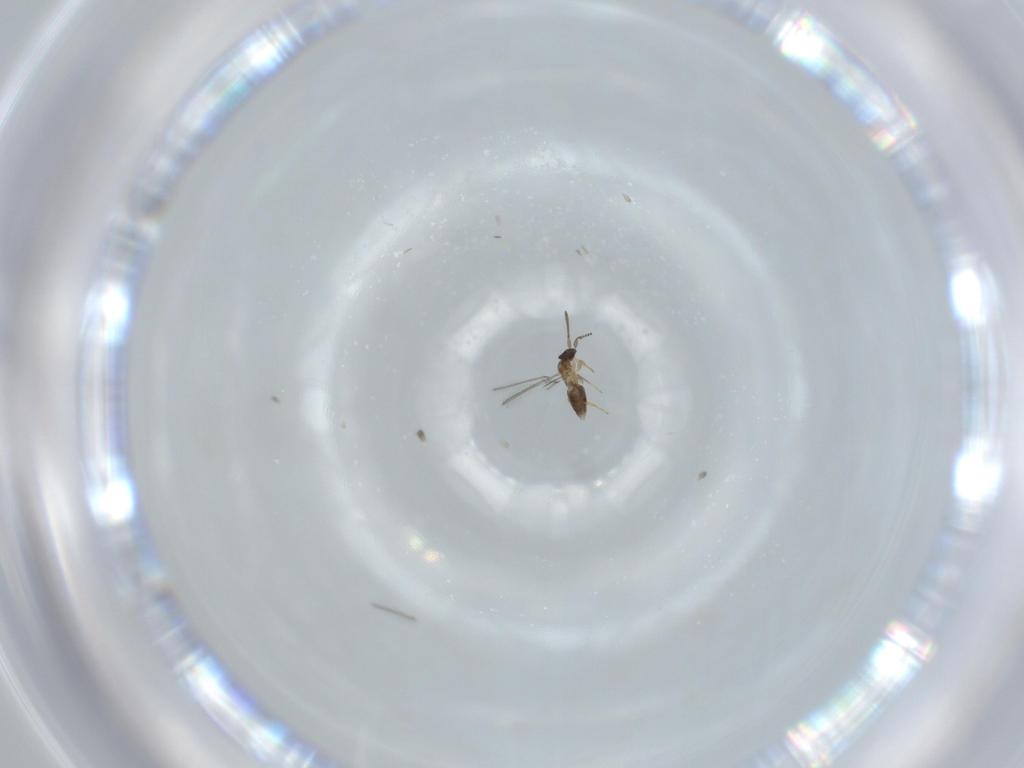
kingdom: Animalia
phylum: Arthropoda
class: Insecta
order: Hymenoptera
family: Mymaridae
